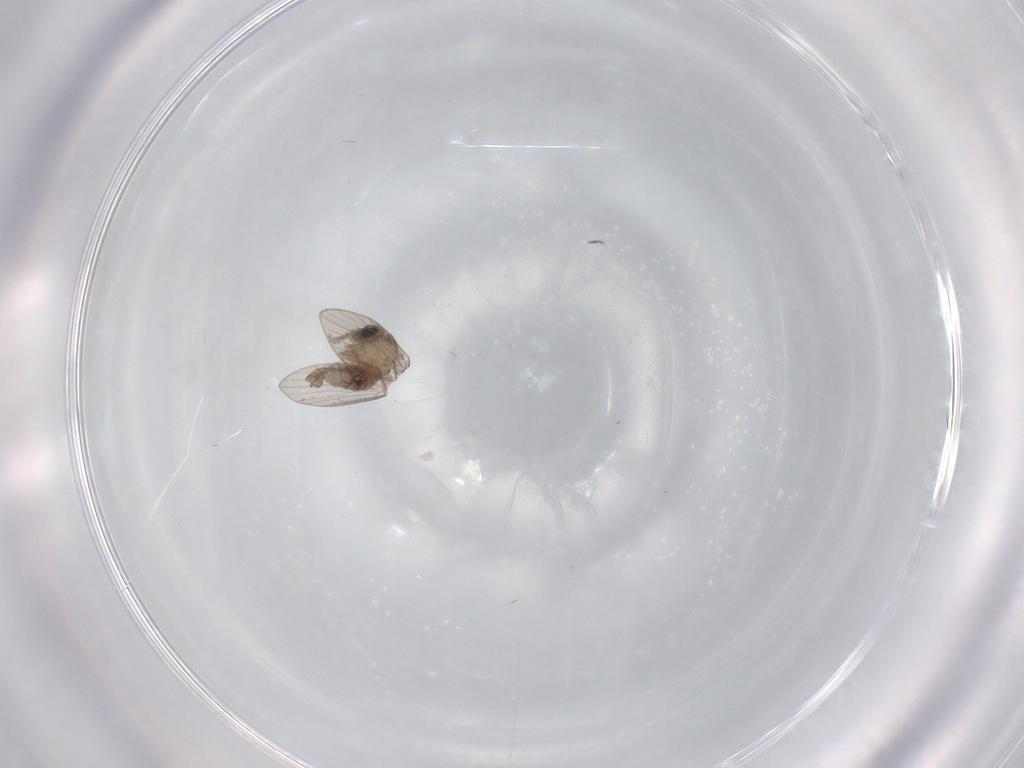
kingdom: Animalia
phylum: Arthropoda
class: Insecta
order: Diptera
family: Psychodidae
